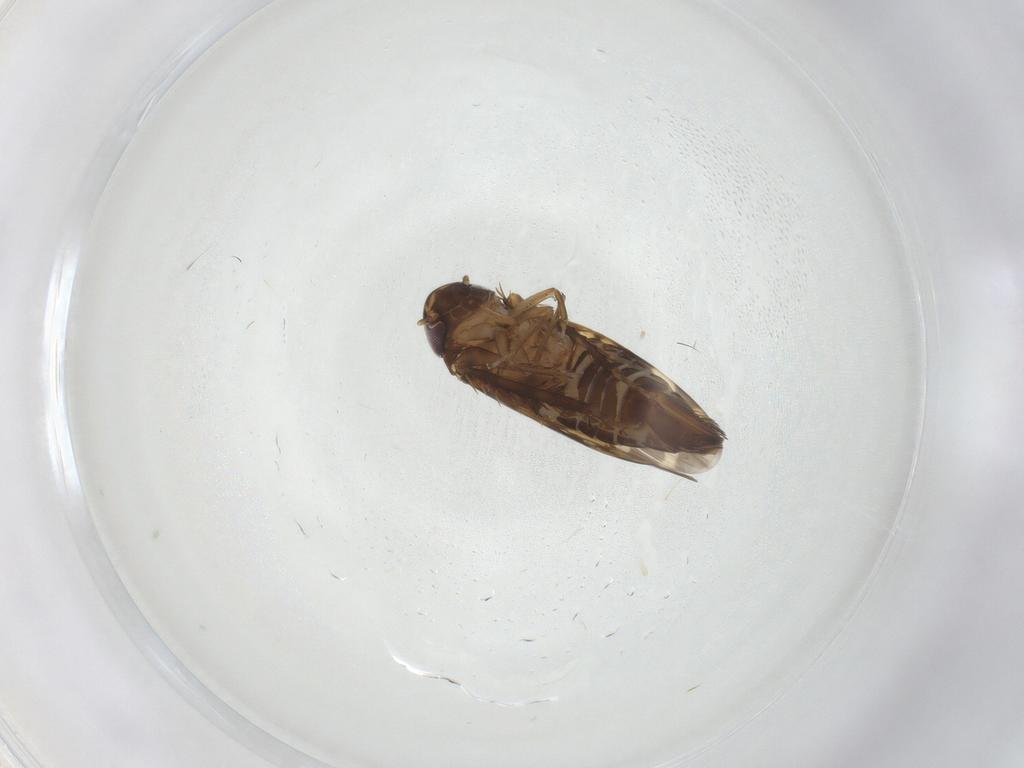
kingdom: Animalia
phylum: Arthropoda
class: Insecta
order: Hemiptera
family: Cicadellidae
